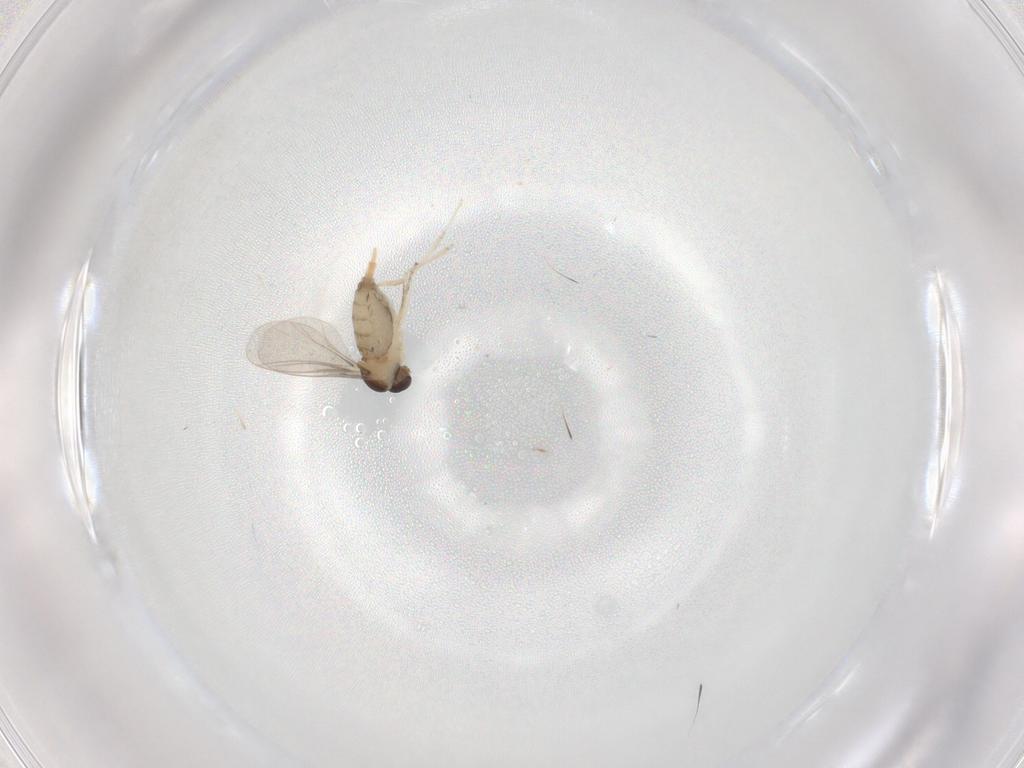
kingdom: Animalia
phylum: Arthropoda
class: Insecta
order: Diptera
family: Cecidomyiidae
